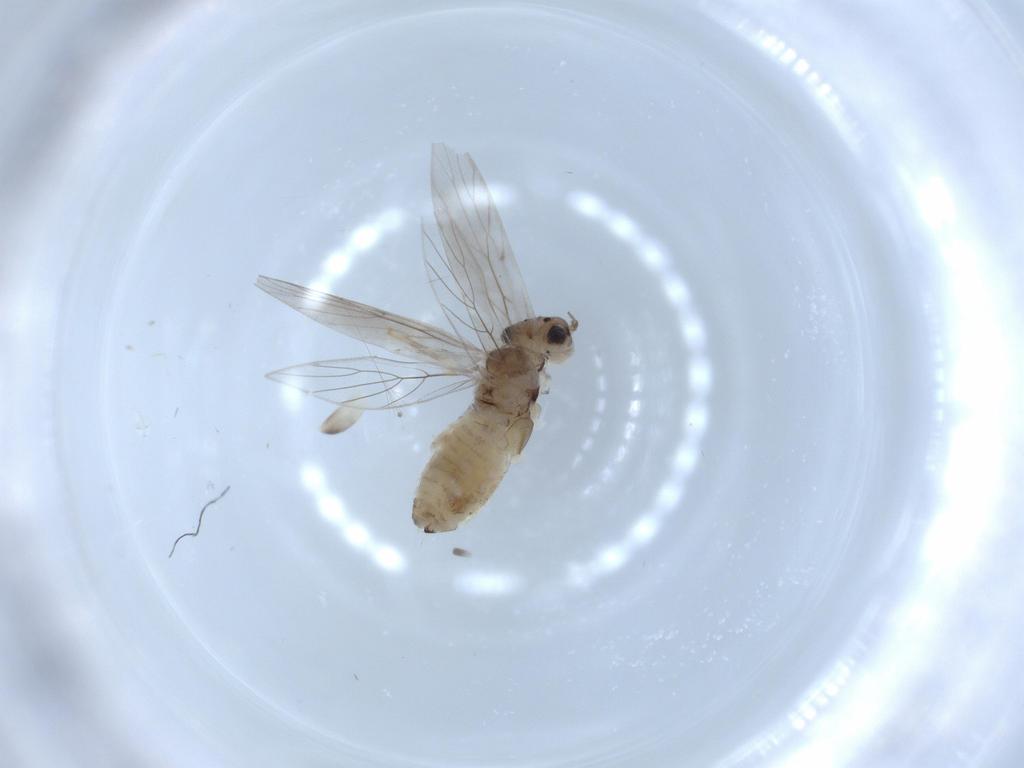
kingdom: Animalia
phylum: Arthropoda
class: Insecta
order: Psocodea
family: Lepidopsocidae
